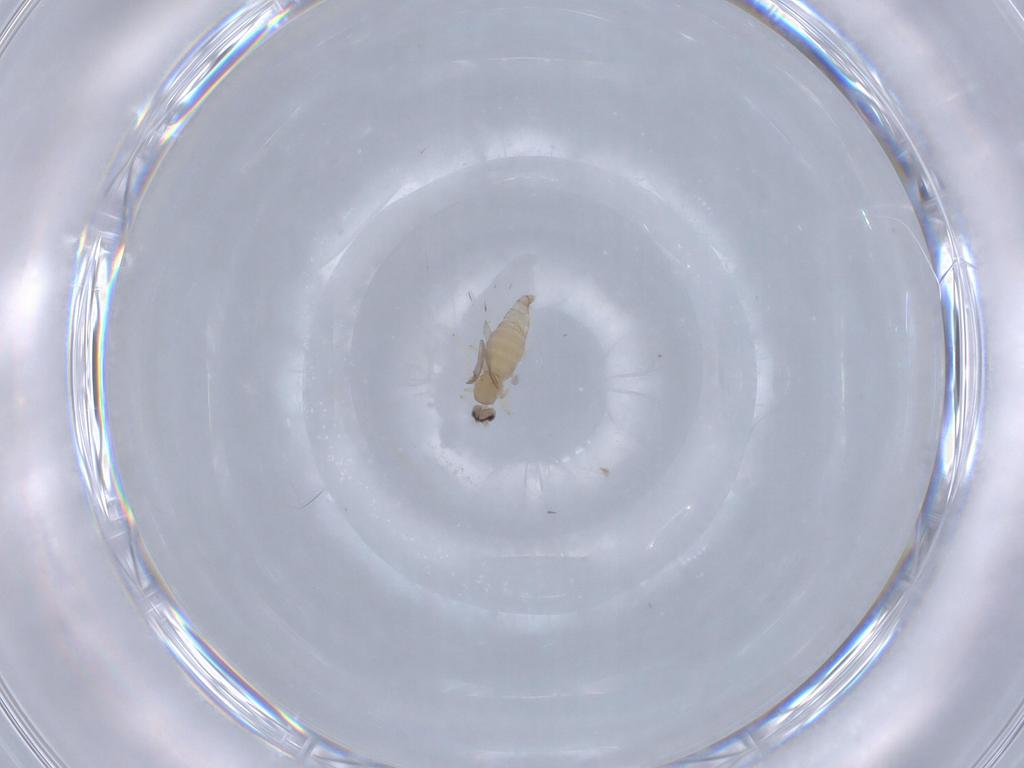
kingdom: Animalia
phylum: Arthropoda
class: Insecta
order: Diptera
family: Cecidomyiidae
